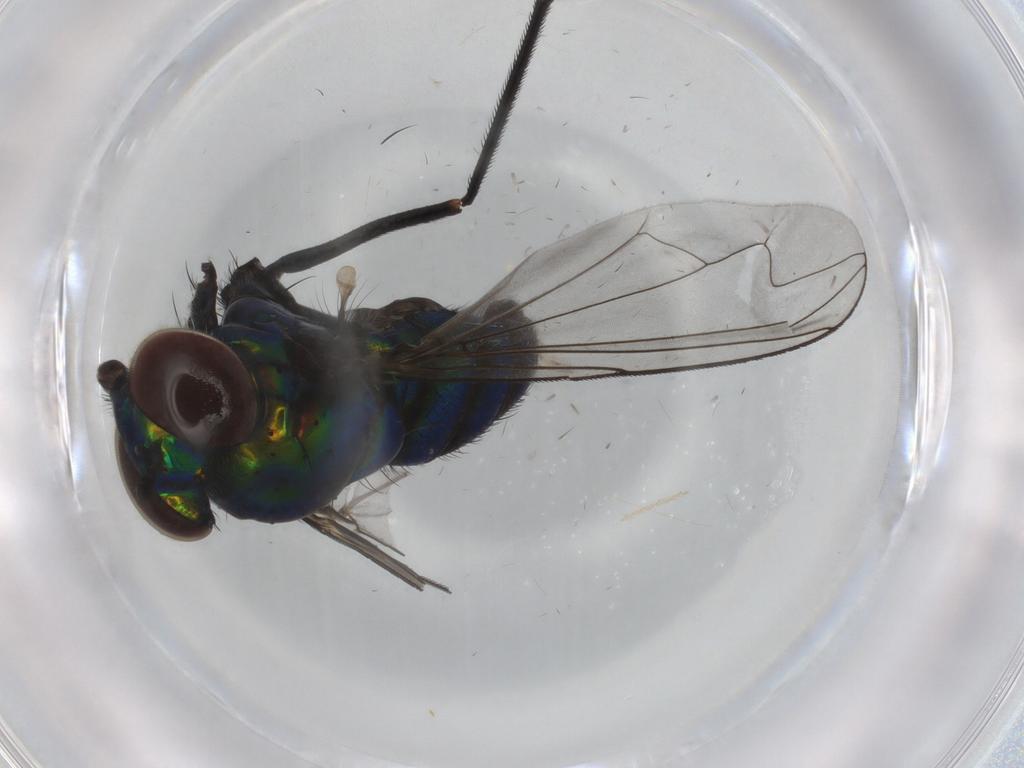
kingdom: Animalia
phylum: Arthropoda
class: Insecta
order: Diptera
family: Dolichopodidae
